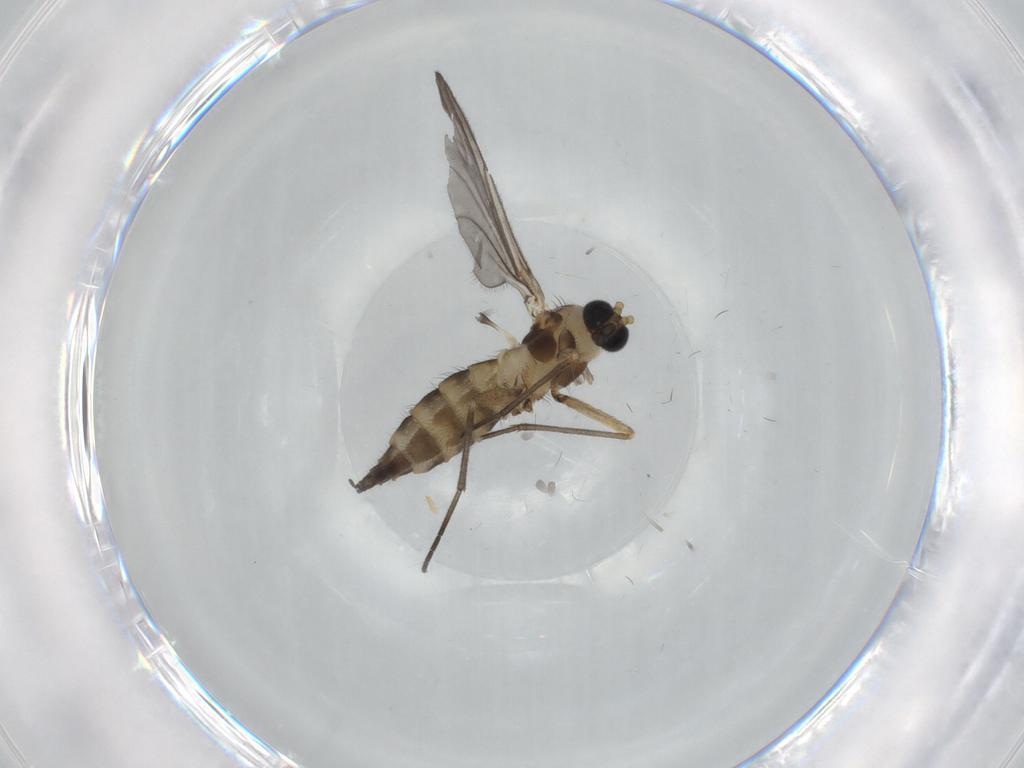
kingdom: Animalia
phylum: Arthropoda
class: Insecta
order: Diptera
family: Sciaridae
